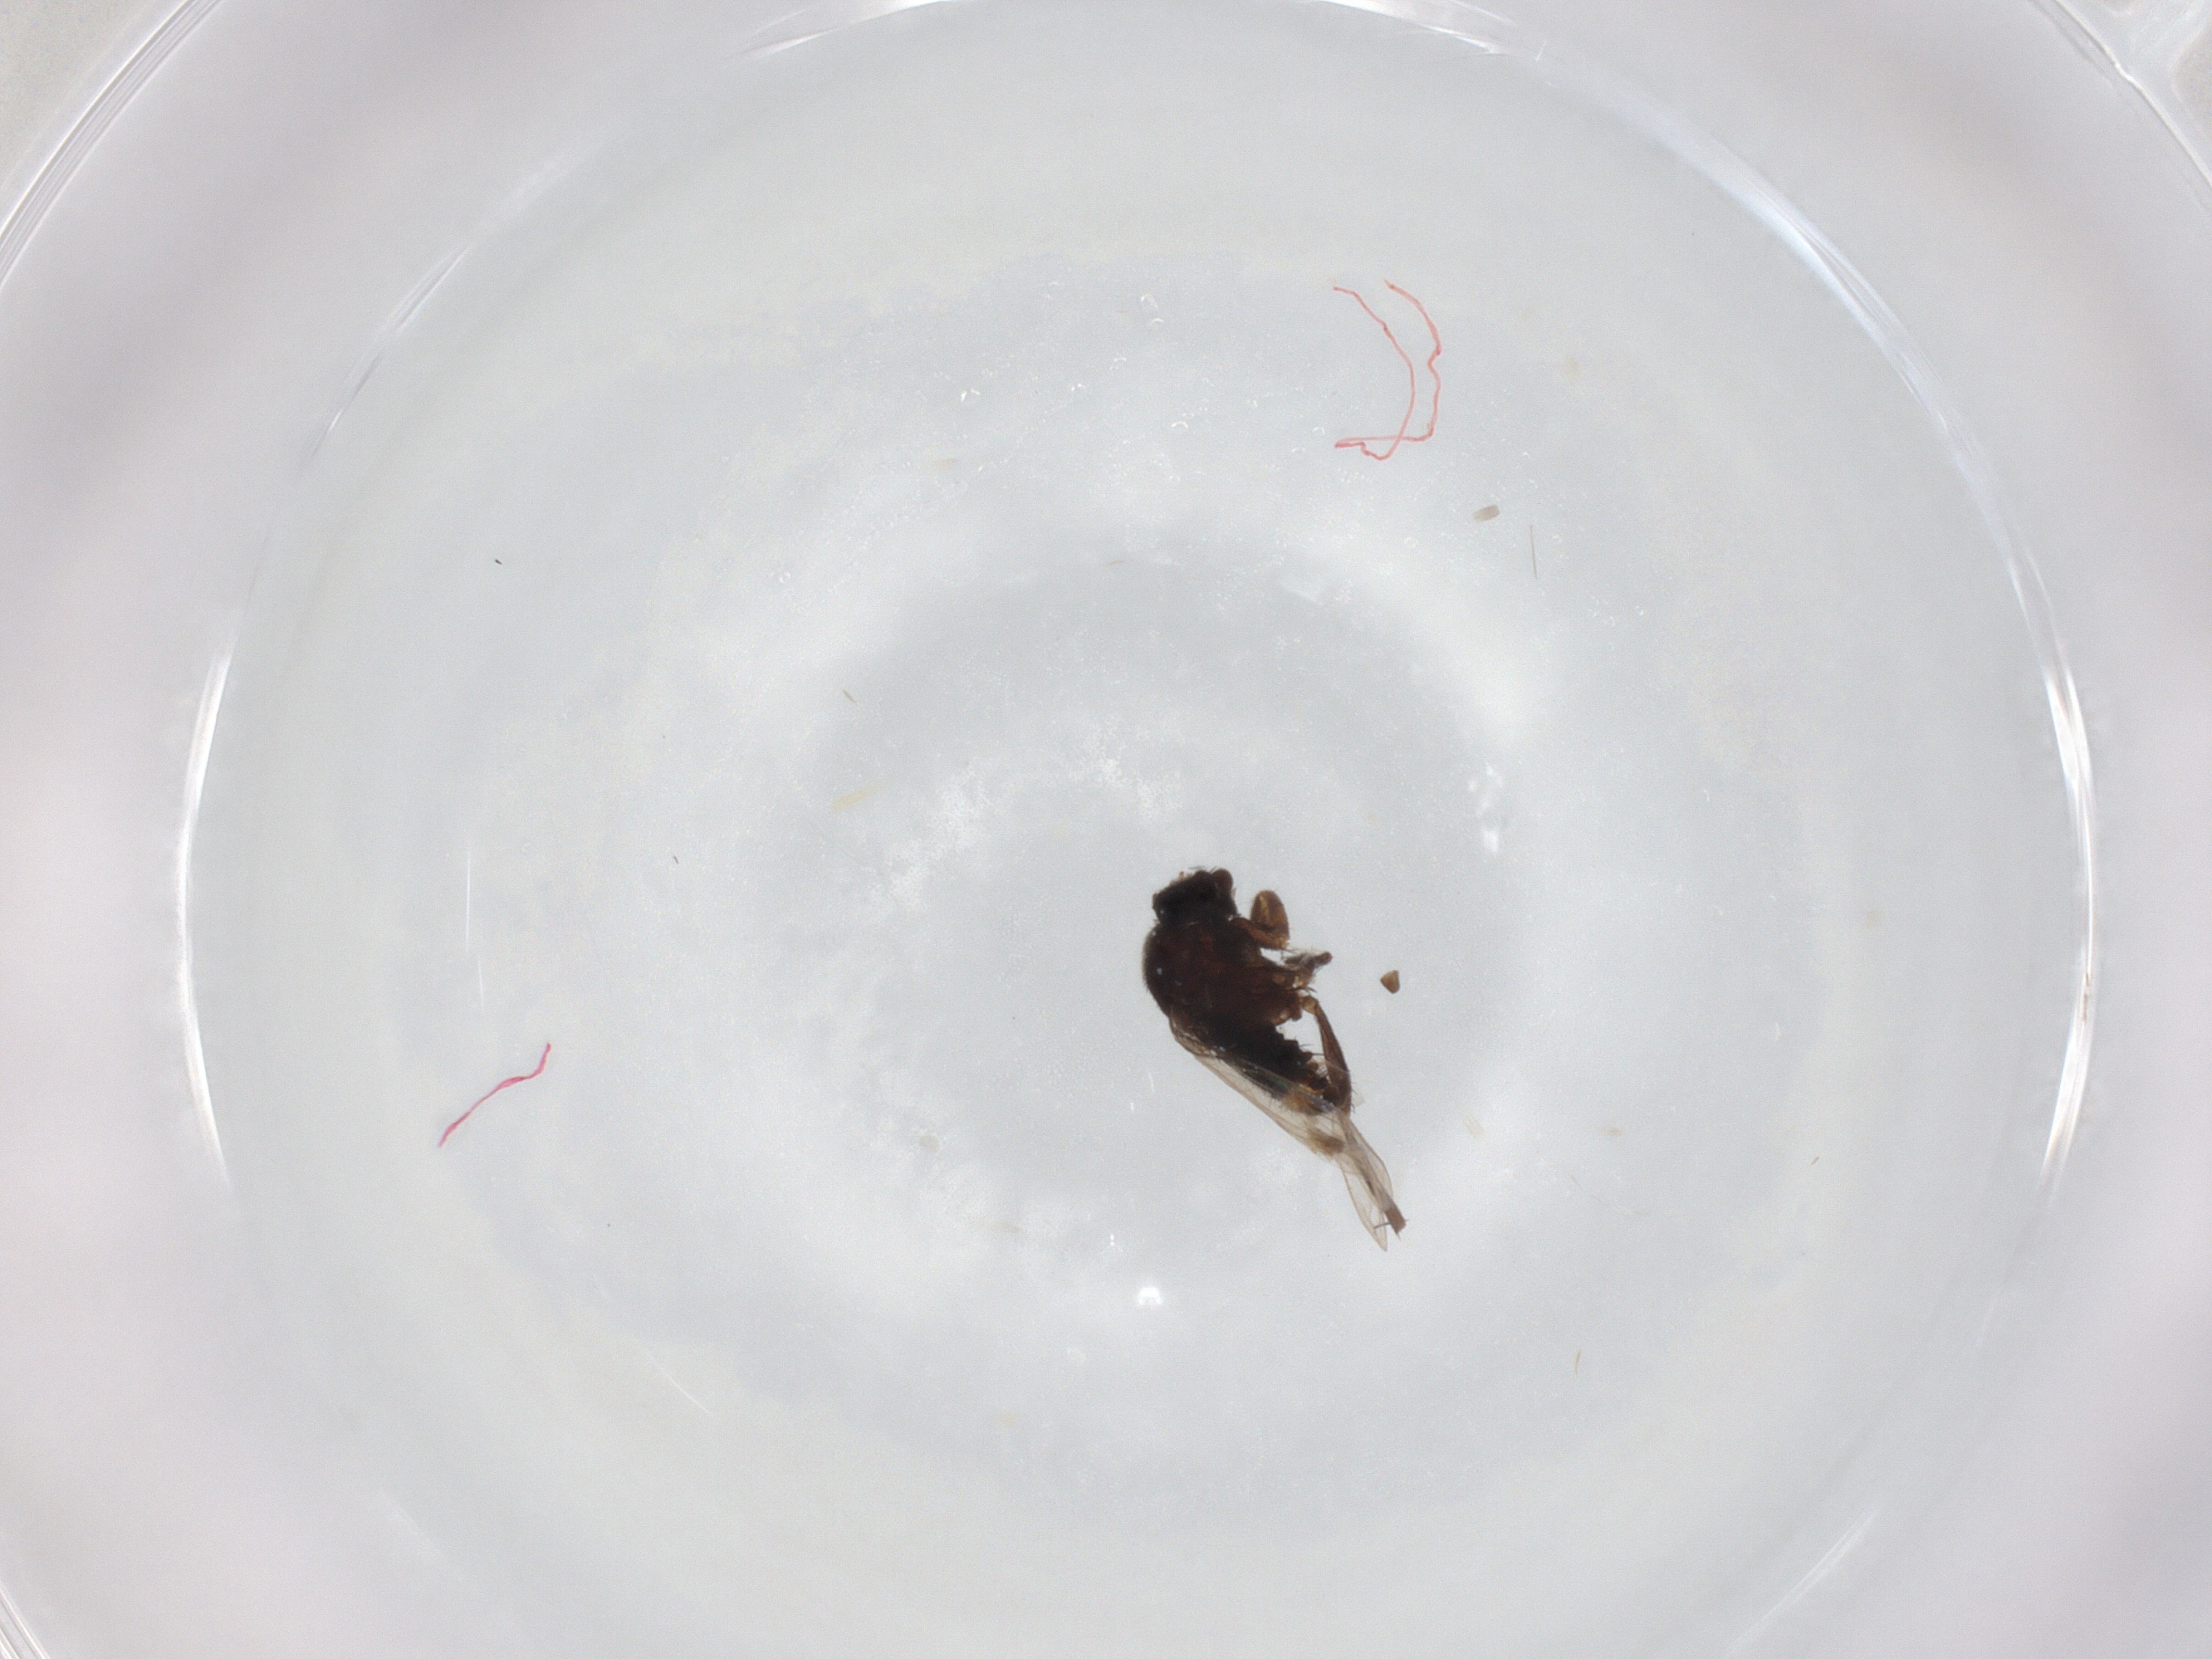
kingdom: Animalia
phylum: Arthropoda
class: Insecta
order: Diptera
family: Phoridae
